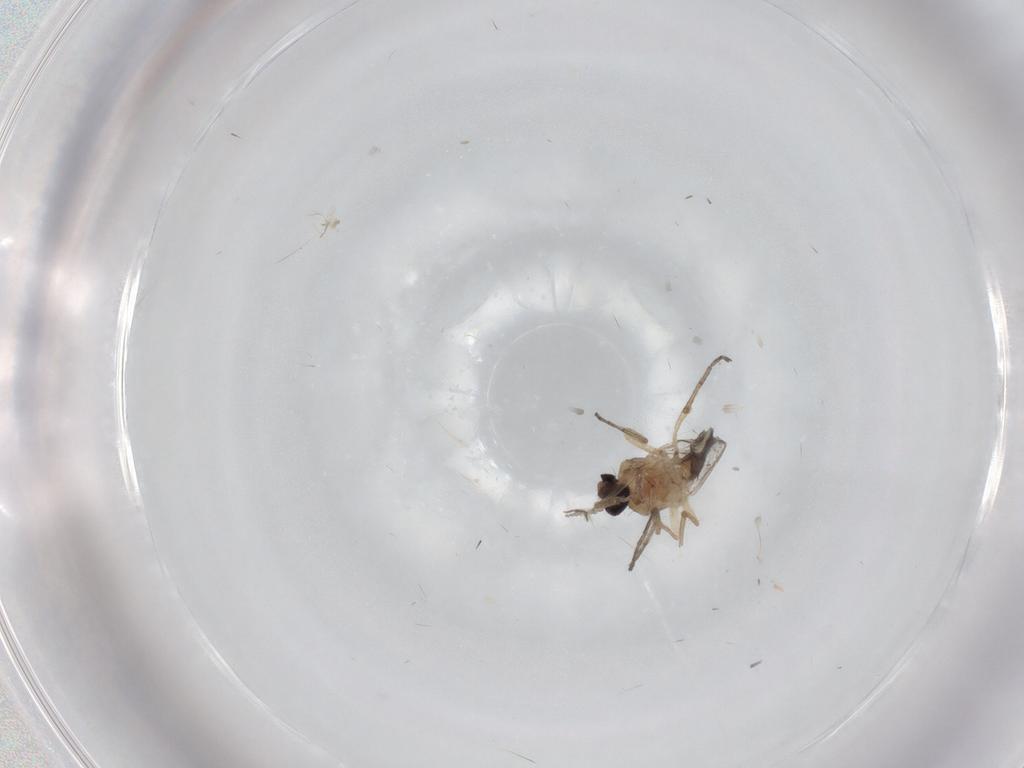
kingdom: Animalia
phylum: Arthropoda
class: Insecta
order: Diptera
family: Ceratopogonidae
